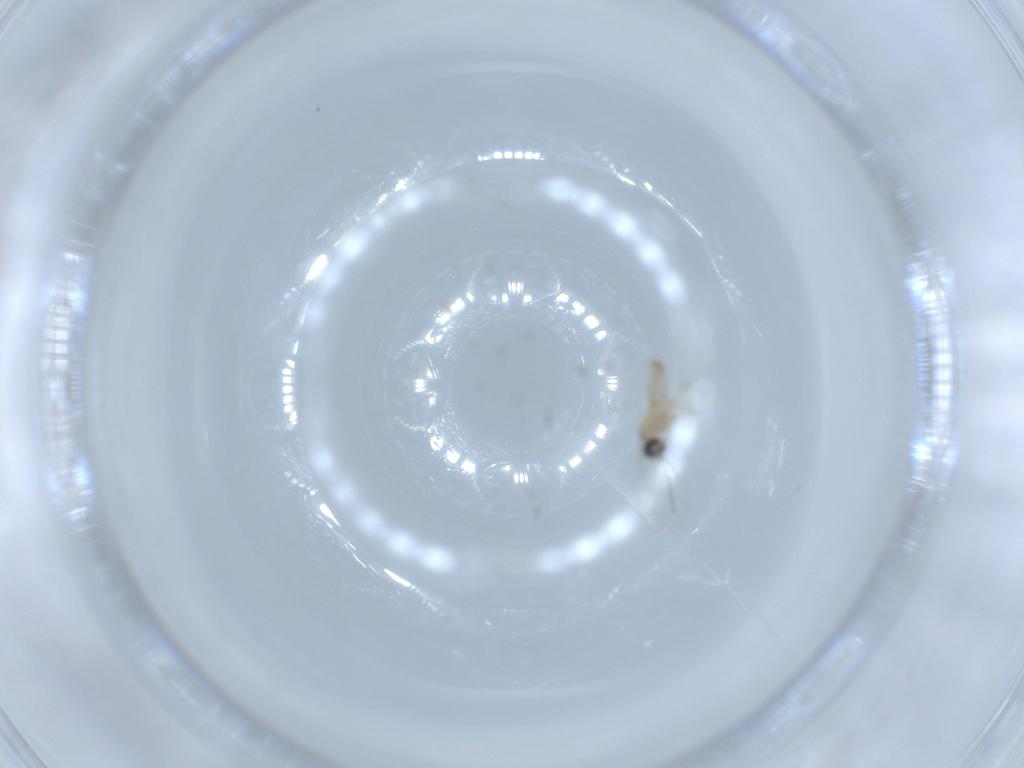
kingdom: Animalia
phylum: Arthropoda
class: Insecta
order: Diptera
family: Cecidomyiidae
